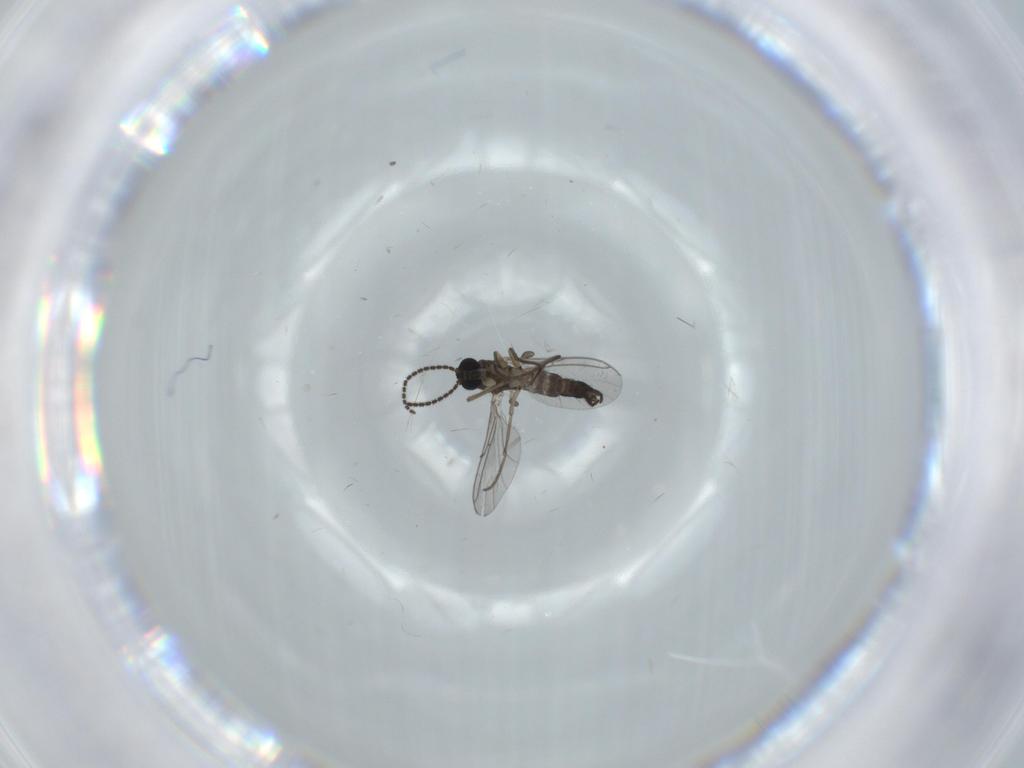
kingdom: Animalia
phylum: Arthropoda
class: Insecta
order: Diptera
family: Sciaridae
